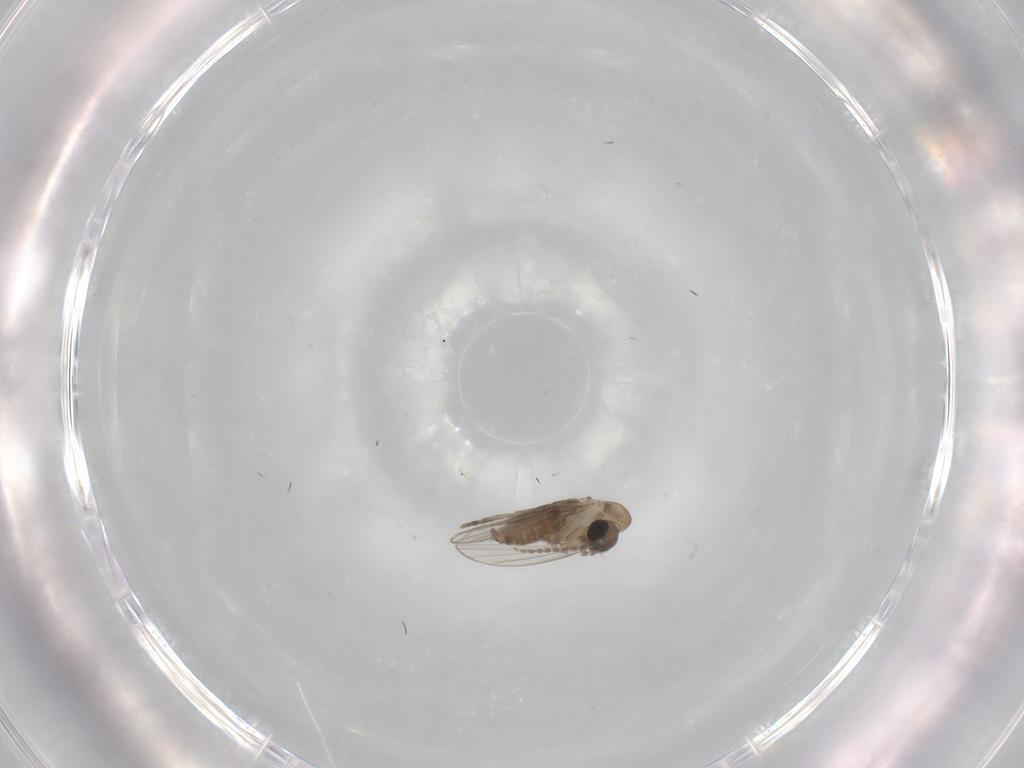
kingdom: Animalia
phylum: Arthropoda
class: Insecta
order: Diptera
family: Psychodidae
